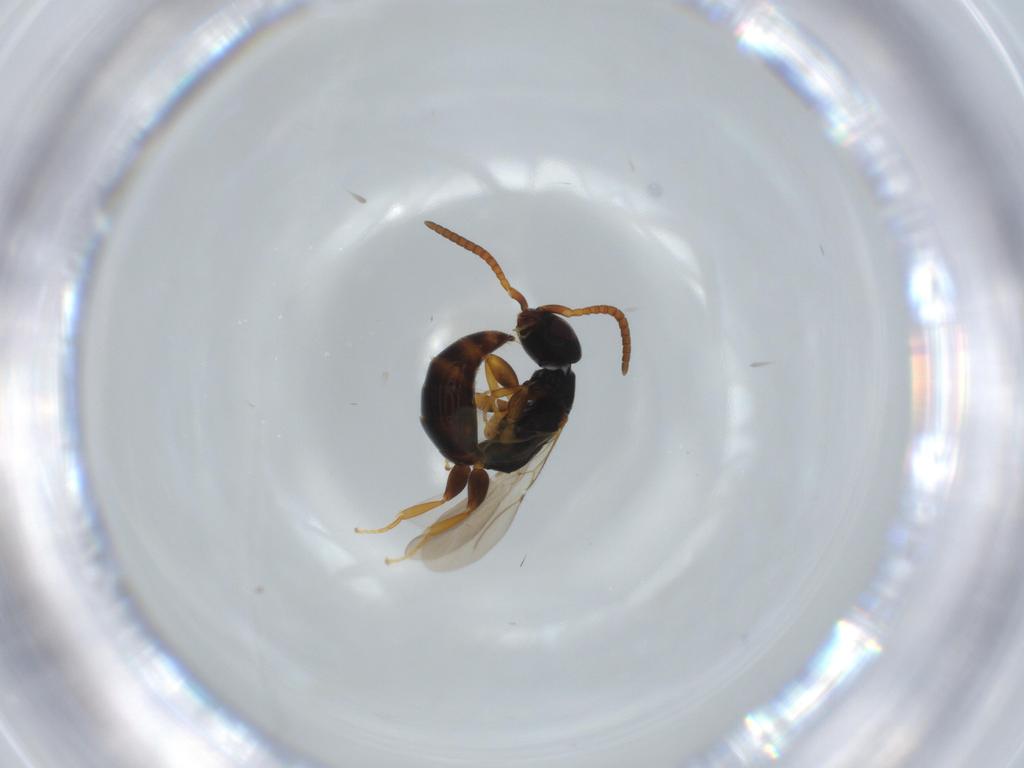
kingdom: Animalia
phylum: Arthropoda
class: Insecta
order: Hymenoptera
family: Bethylidae
